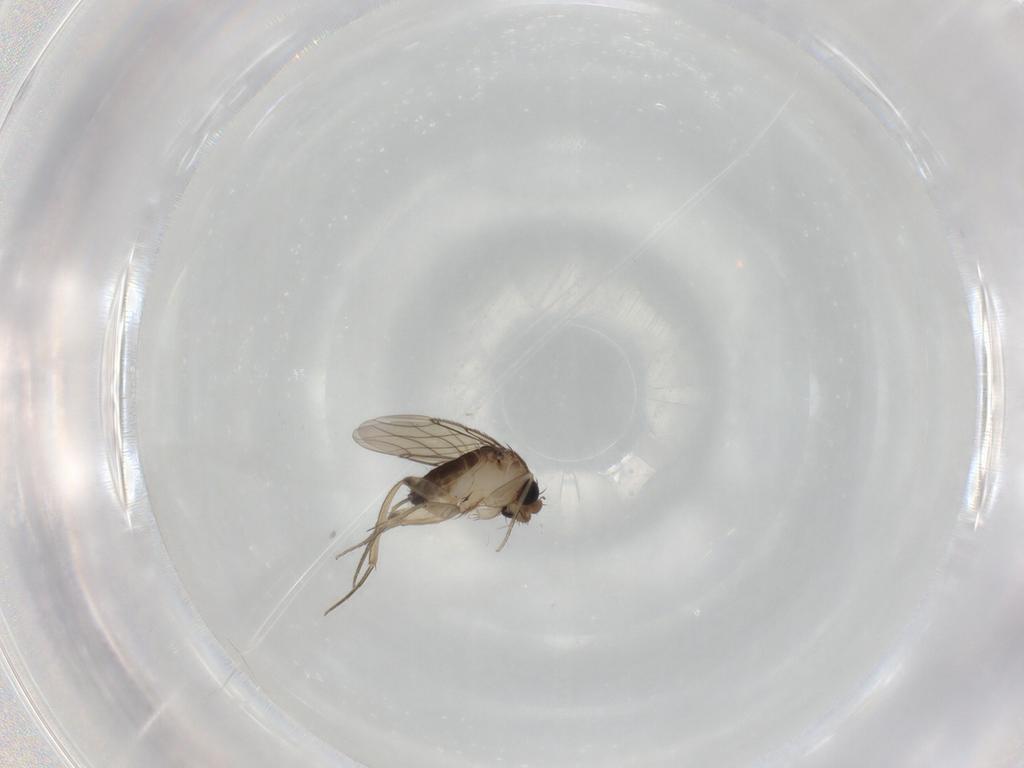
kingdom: Animalia
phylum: Arthropoda
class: Insecta
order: Diptera
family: Phoridae
